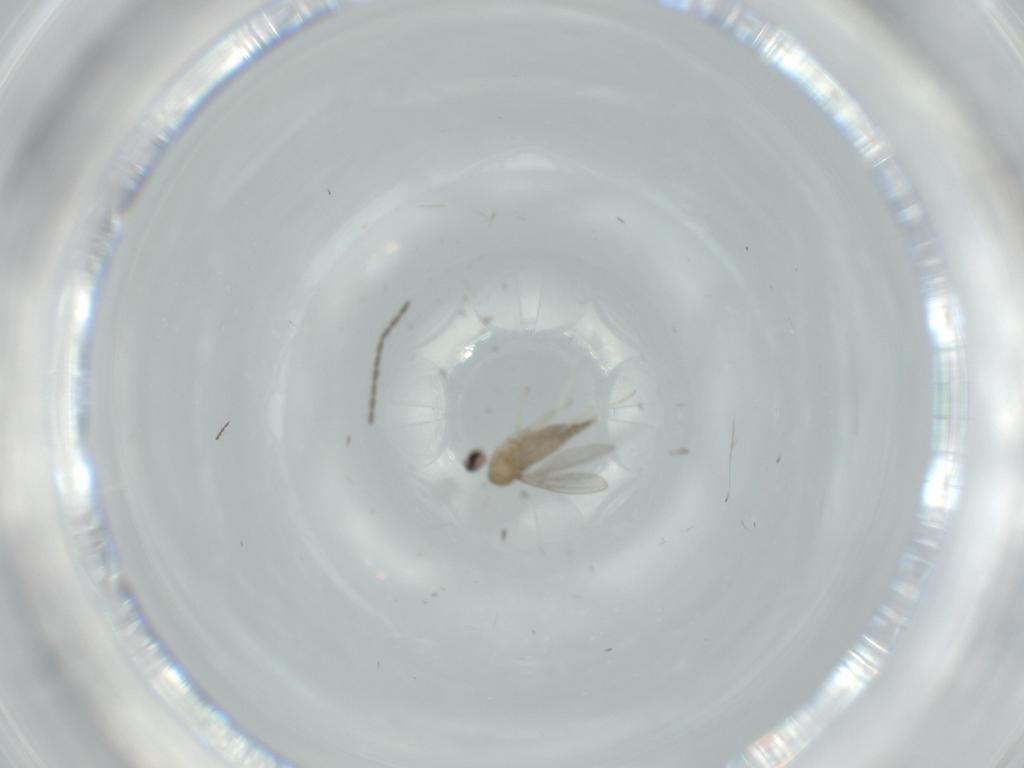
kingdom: Animalia
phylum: Arthropoda
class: Insecta
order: Diptera
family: Cecidomyiidae
